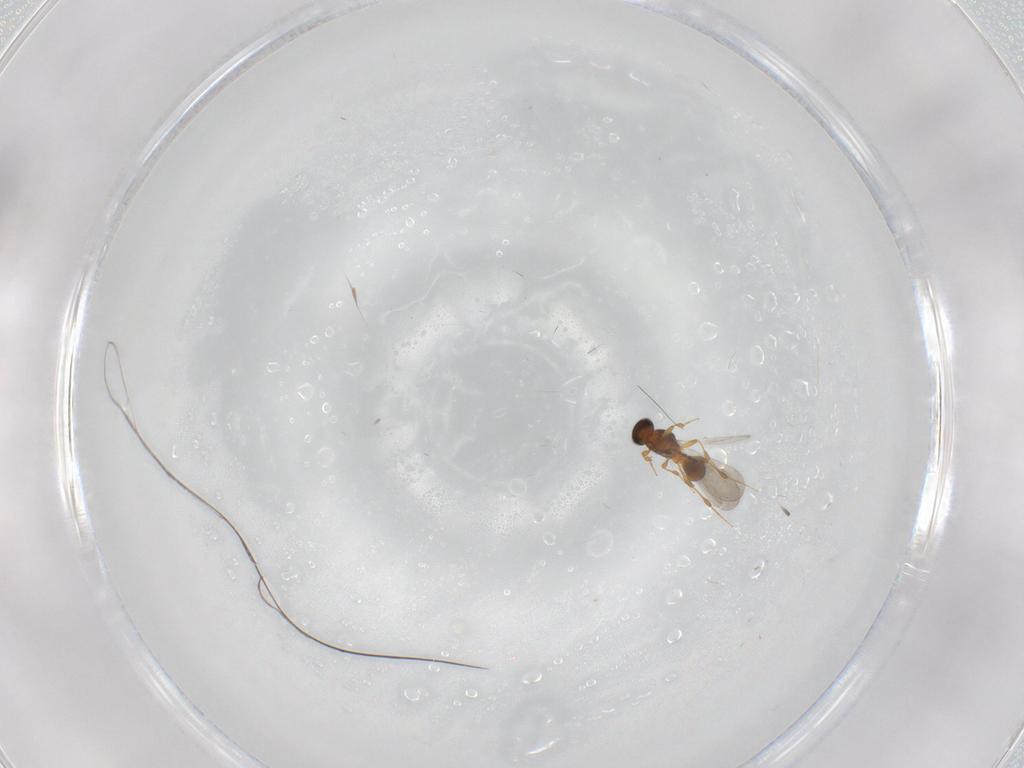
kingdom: Animalia
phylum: Arthropoda
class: Insecta
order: Hymenoptera
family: Platygastridae
